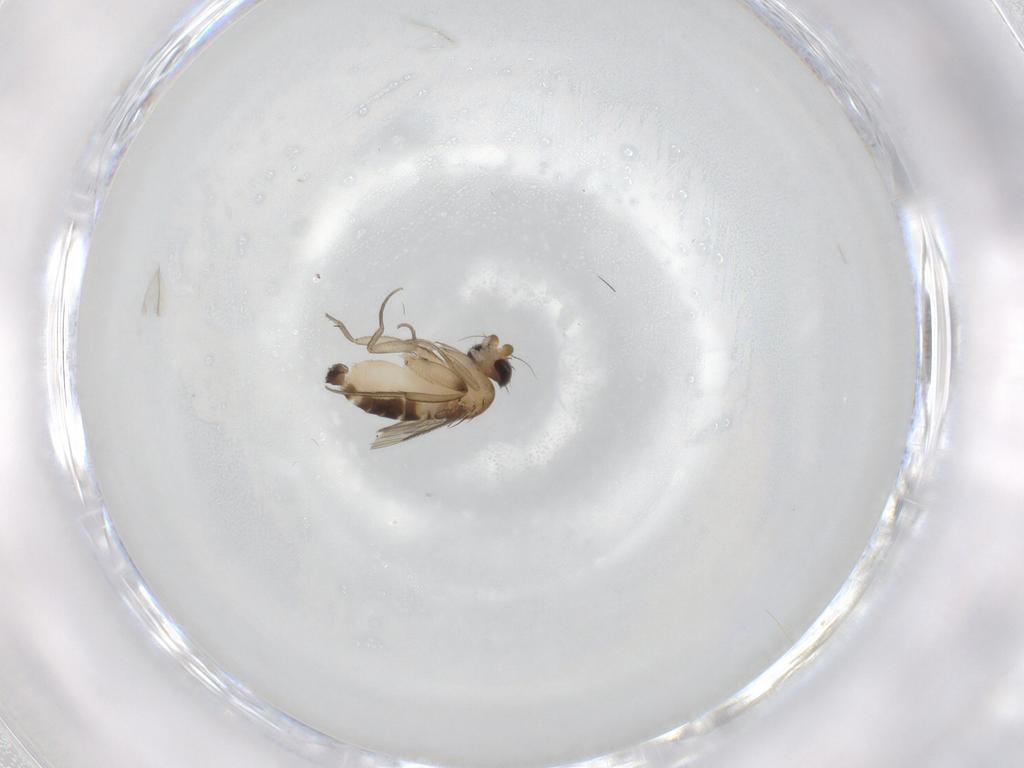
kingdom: Animalia
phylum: Arthropoda
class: Insecta
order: Diptera
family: Phoridae
